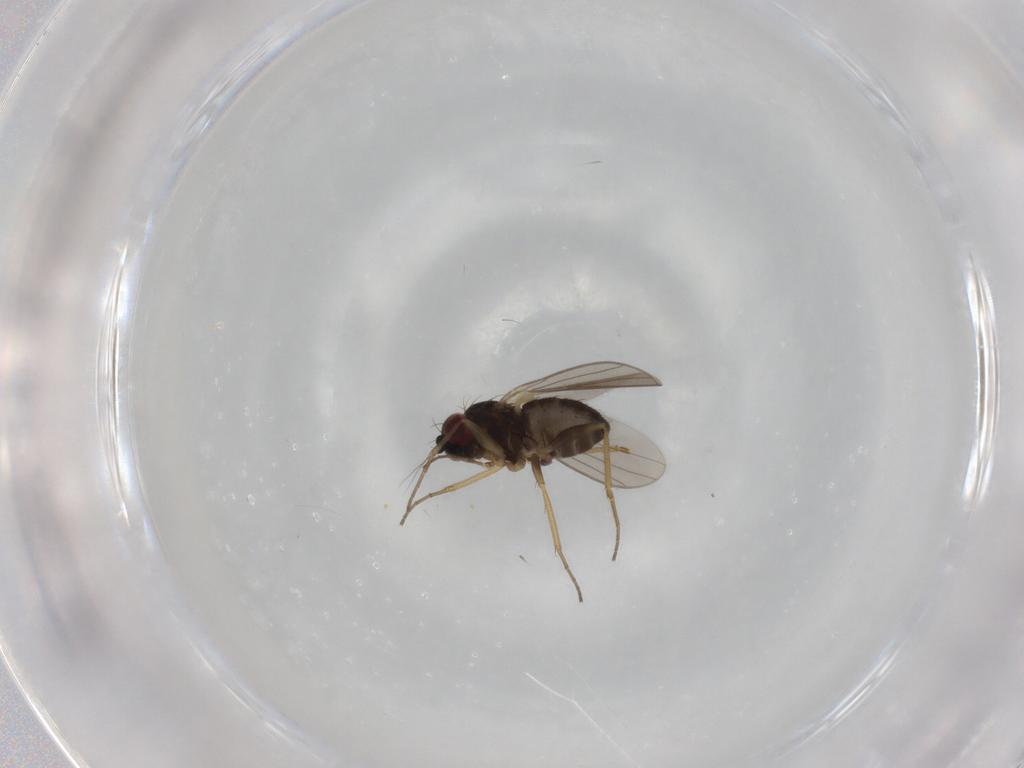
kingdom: Animalia
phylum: Arthropoda
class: Insecta
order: Diptera
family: Dolichopodidae
